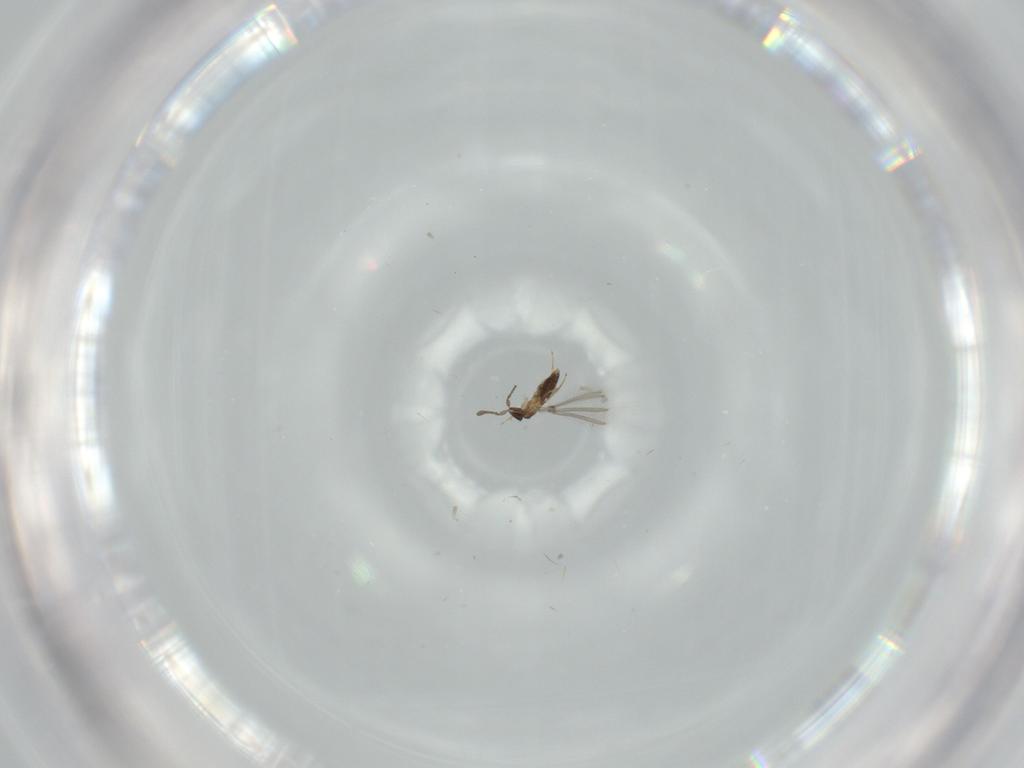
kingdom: Animalia
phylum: Arthropoda
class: Insecta
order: Hymenoptera
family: Mymaridae
